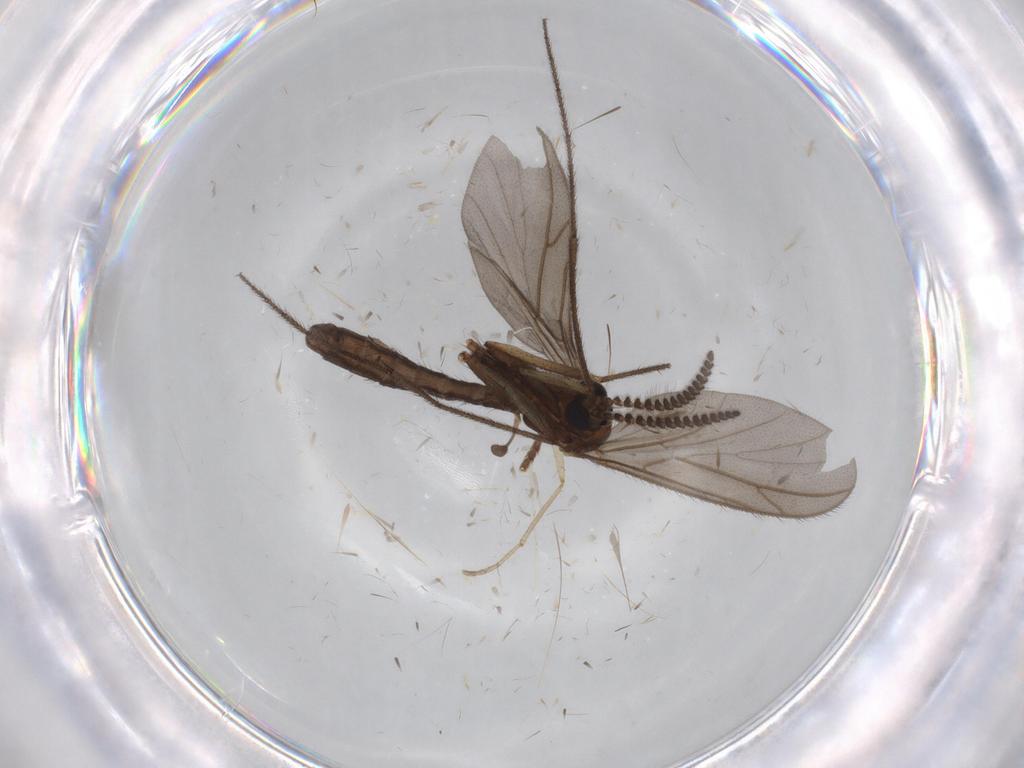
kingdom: Animalia
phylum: Arthropoda
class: Insecta
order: Diptera
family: Ditomyiidae
